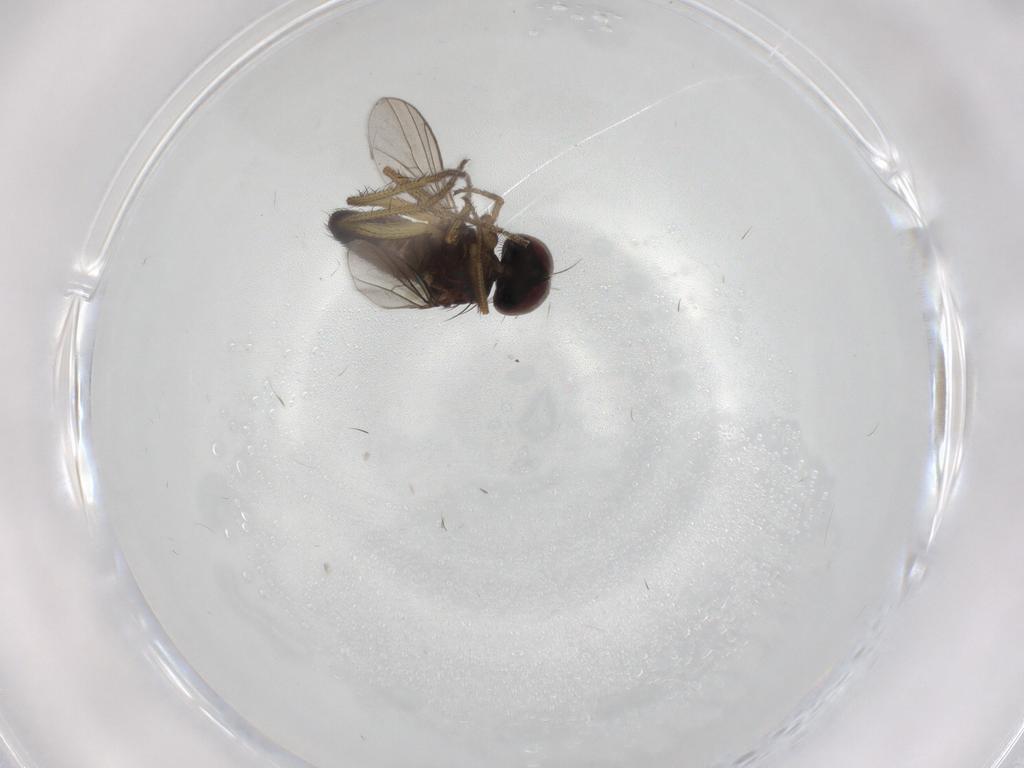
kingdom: Animalia
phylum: Arthropoda
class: Insecta
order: Diptera
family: Dolichopodidae
